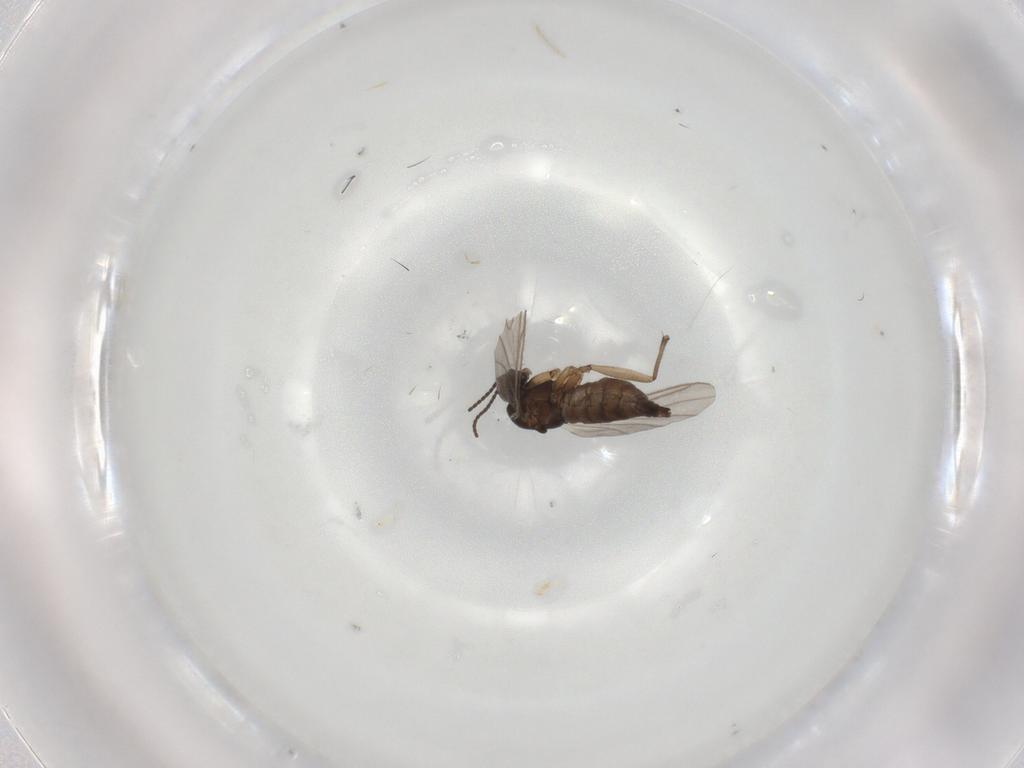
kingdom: Animalia
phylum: Arthropoda
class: Insecta
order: Diptera
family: Sciaridae
